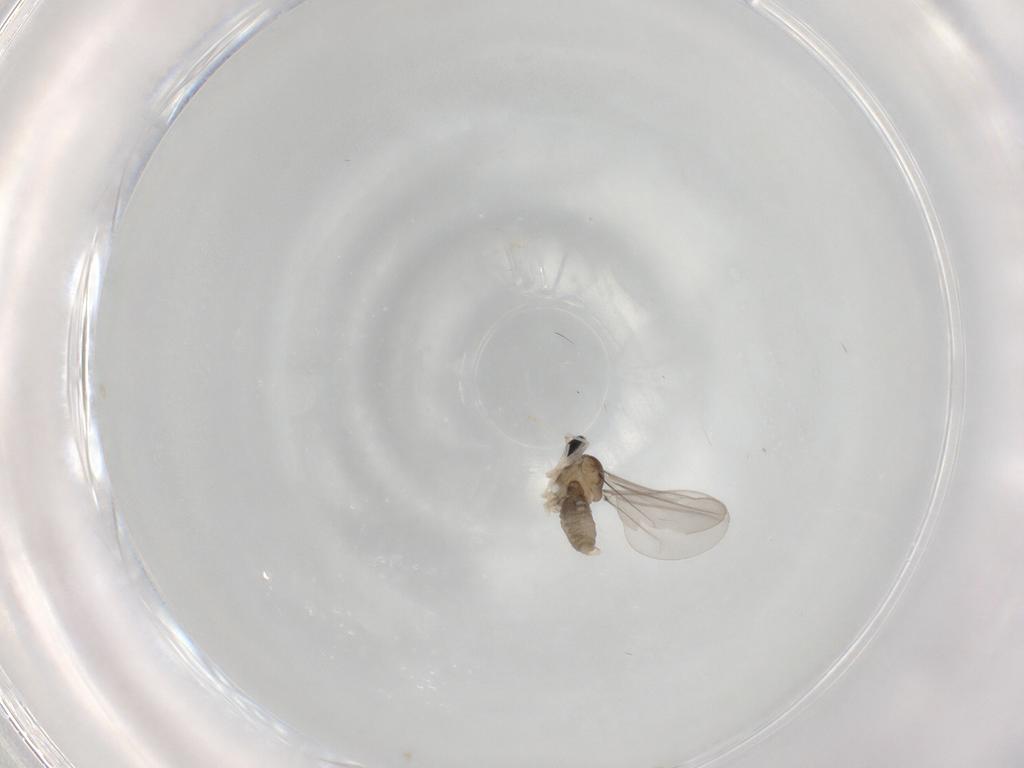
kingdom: Animalia
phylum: Arthropoda
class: Insecta
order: Diptera
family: Cecidomyiidae
